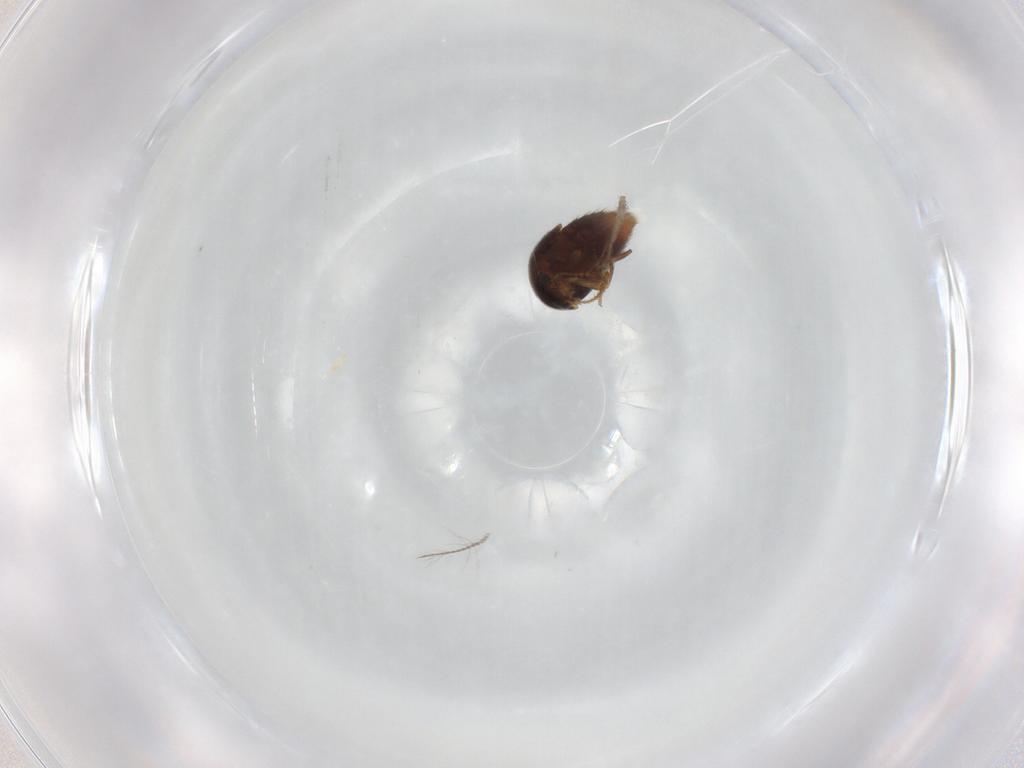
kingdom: Animalia
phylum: Arthropoda
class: Insecta
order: Coleoptera
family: Staphylinidae
